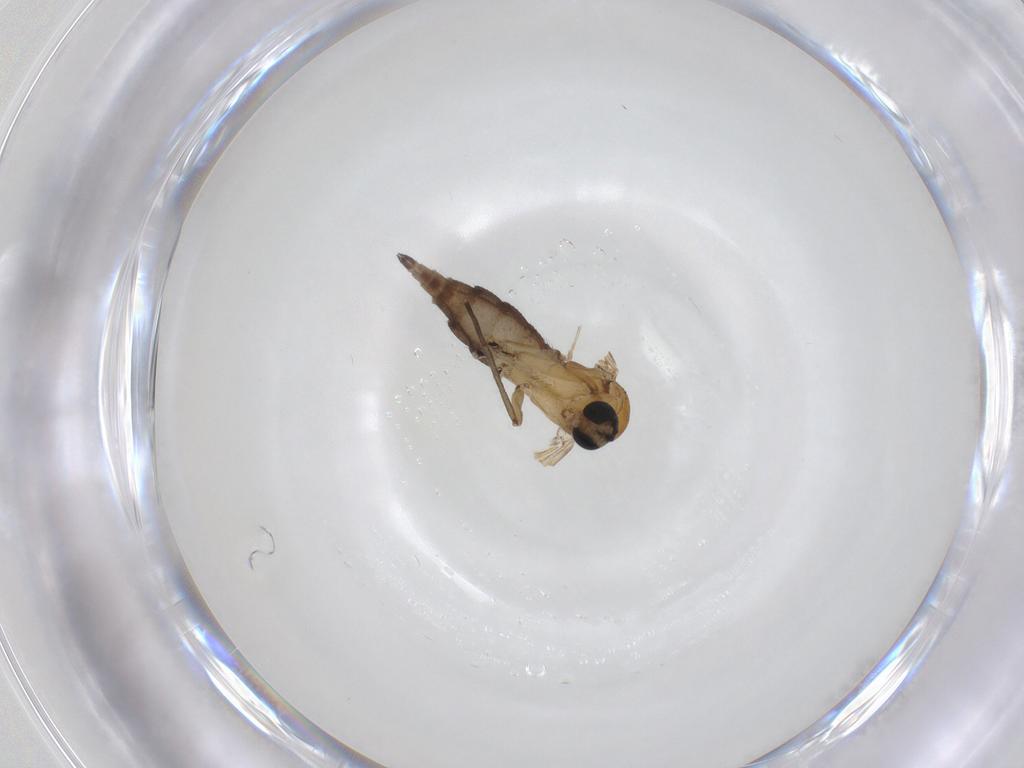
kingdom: Animalia
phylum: Arthropoda
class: Insecta
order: Diptera
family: Sciaridae
